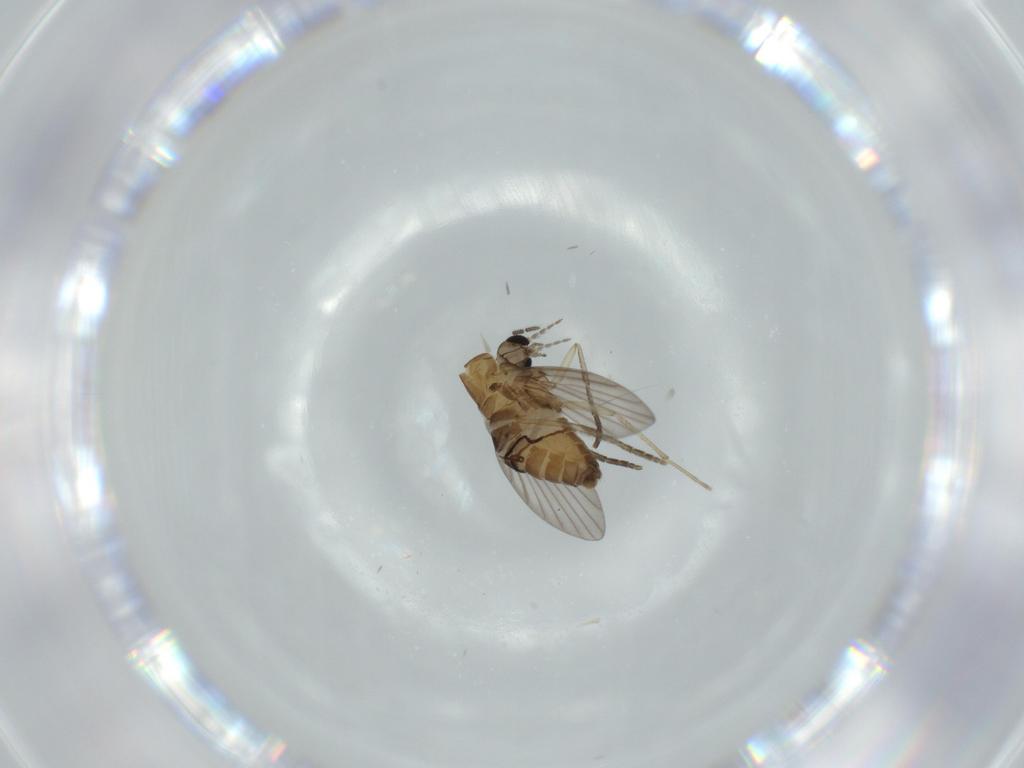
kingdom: Animalia
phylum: Arthropoda
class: Insecta
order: Diptera
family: Sciaridae
